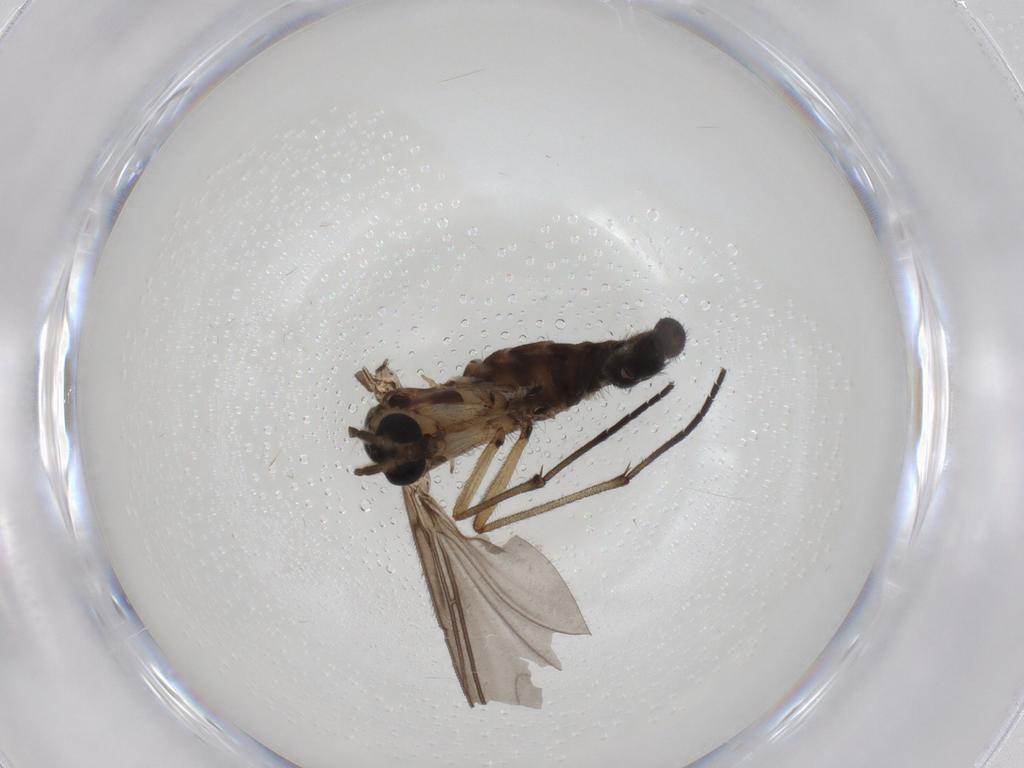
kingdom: Animalia
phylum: Arthropoda
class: Insecta
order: Diptera
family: Sciaridae
